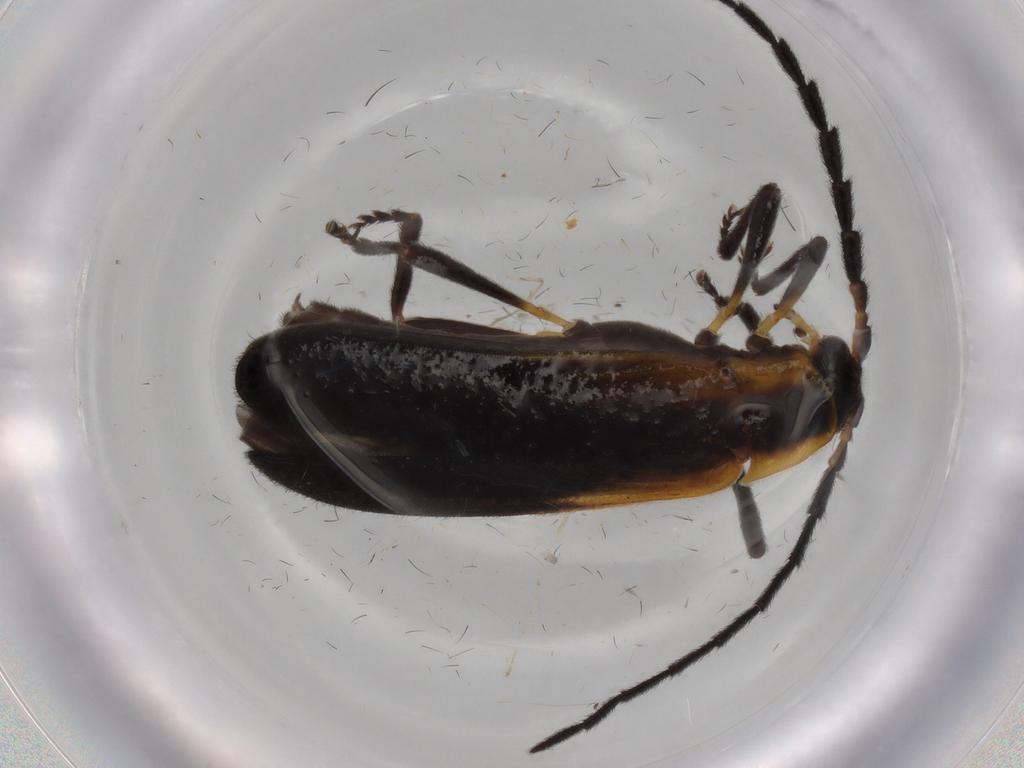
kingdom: Animalia
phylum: Arthropoda
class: Insecta
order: Coleoptera
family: Lycidae
